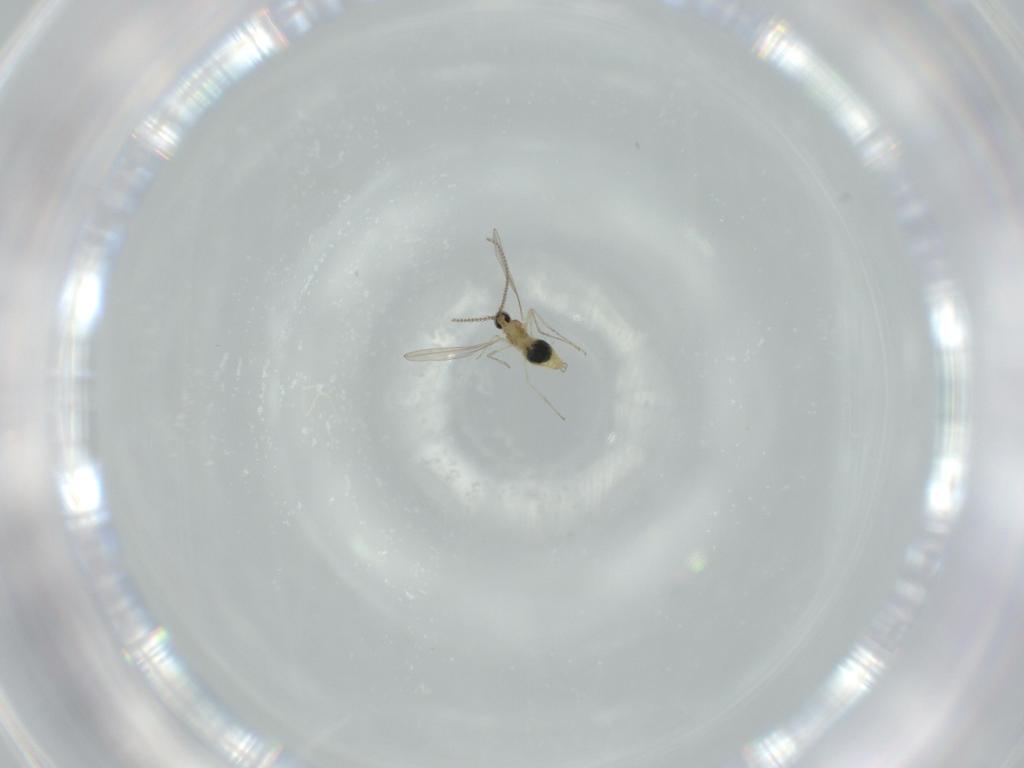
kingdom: Animalia
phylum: Arthropoda
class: Insecta
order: Diptera
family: Cecidomyiidae
